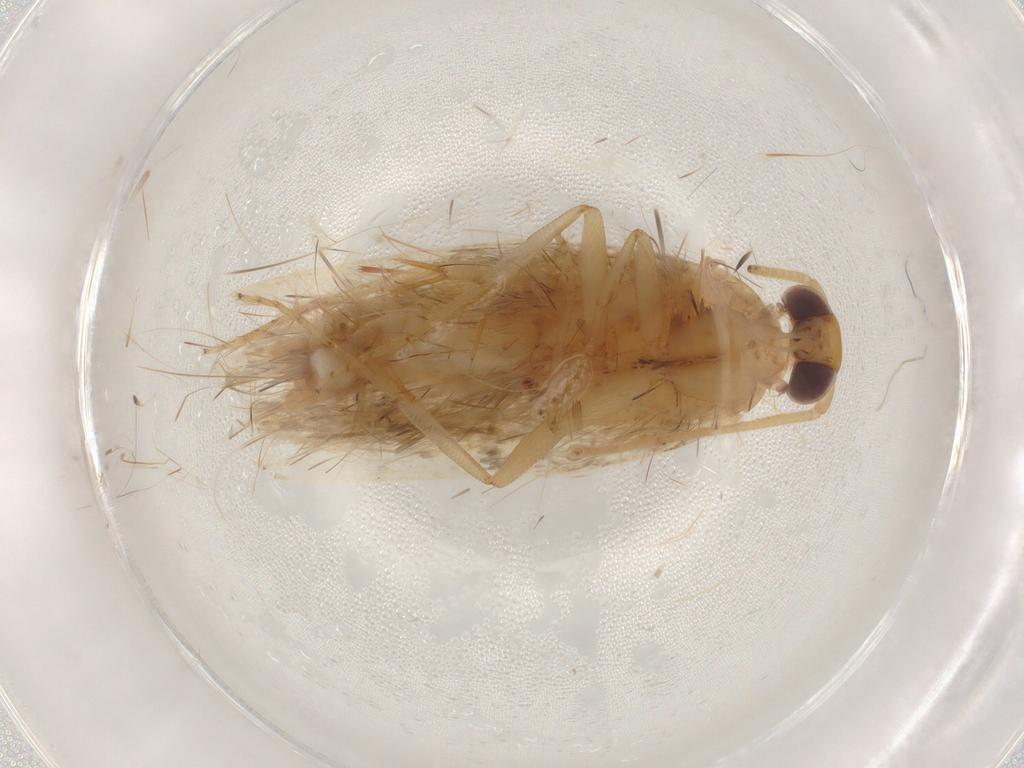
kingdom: Animalia
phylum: Arthropoda
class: Insecta
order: Lepidoptera
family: Gelechiidae
